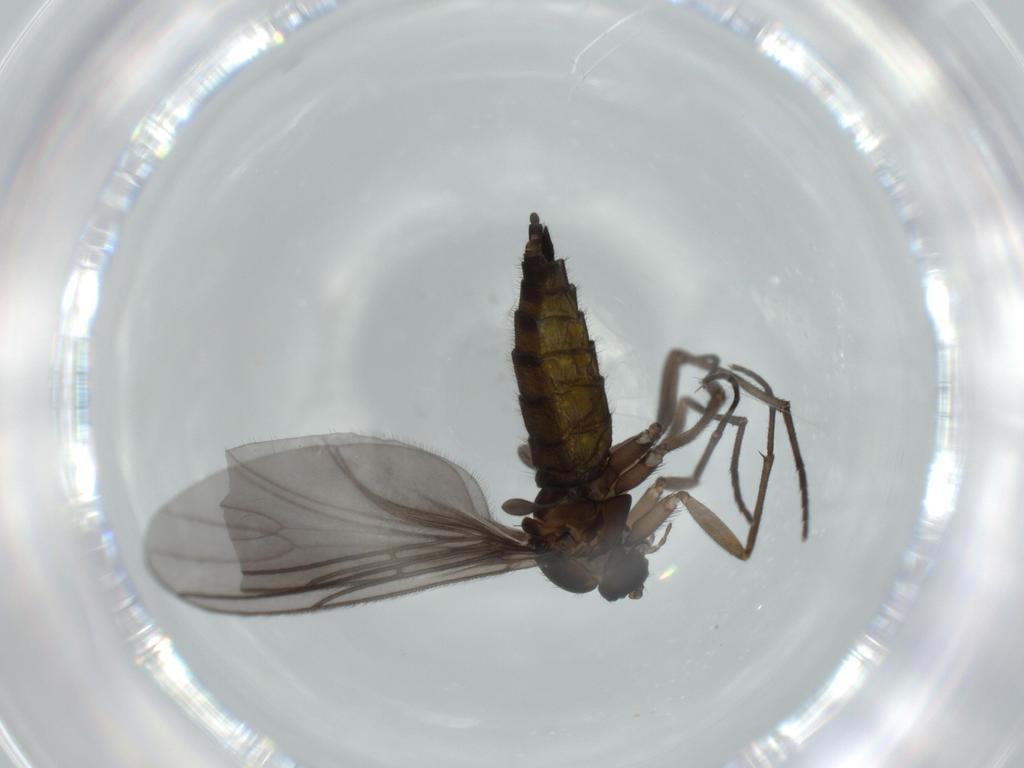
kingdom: Animalia
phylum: Arthropoda
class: Insecta
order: Diptera
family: Sciaridae
